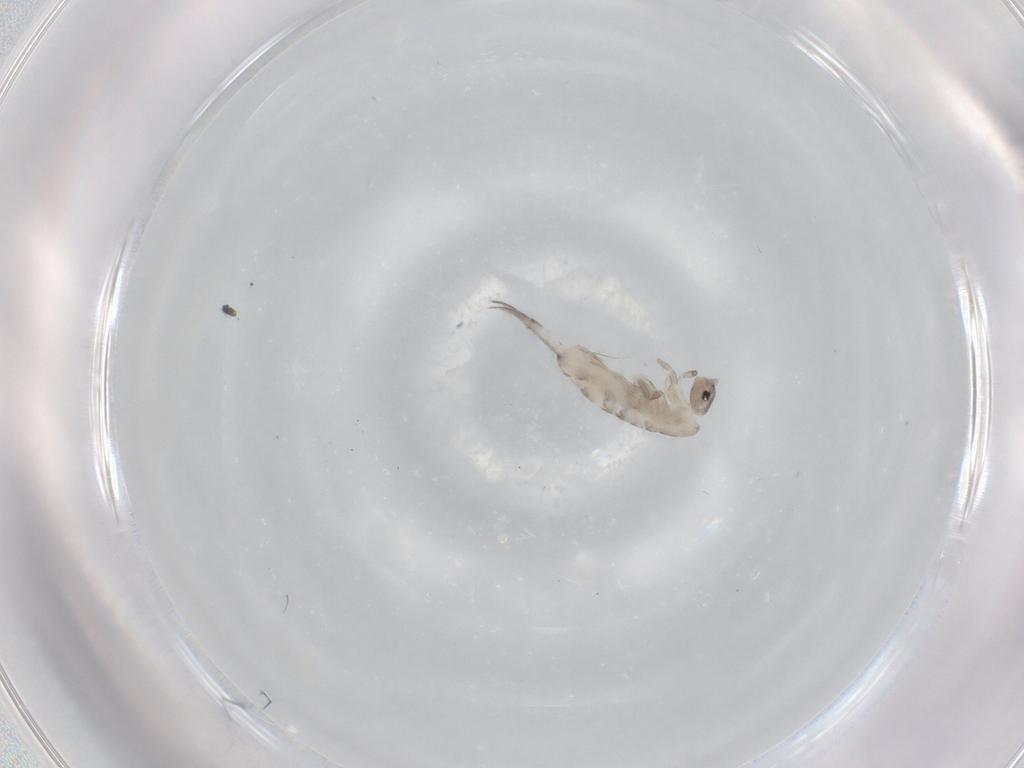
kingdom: Animalia
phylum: Arthropoda
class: Collembola
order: Entomobryomorpha
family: Entomobryidae
